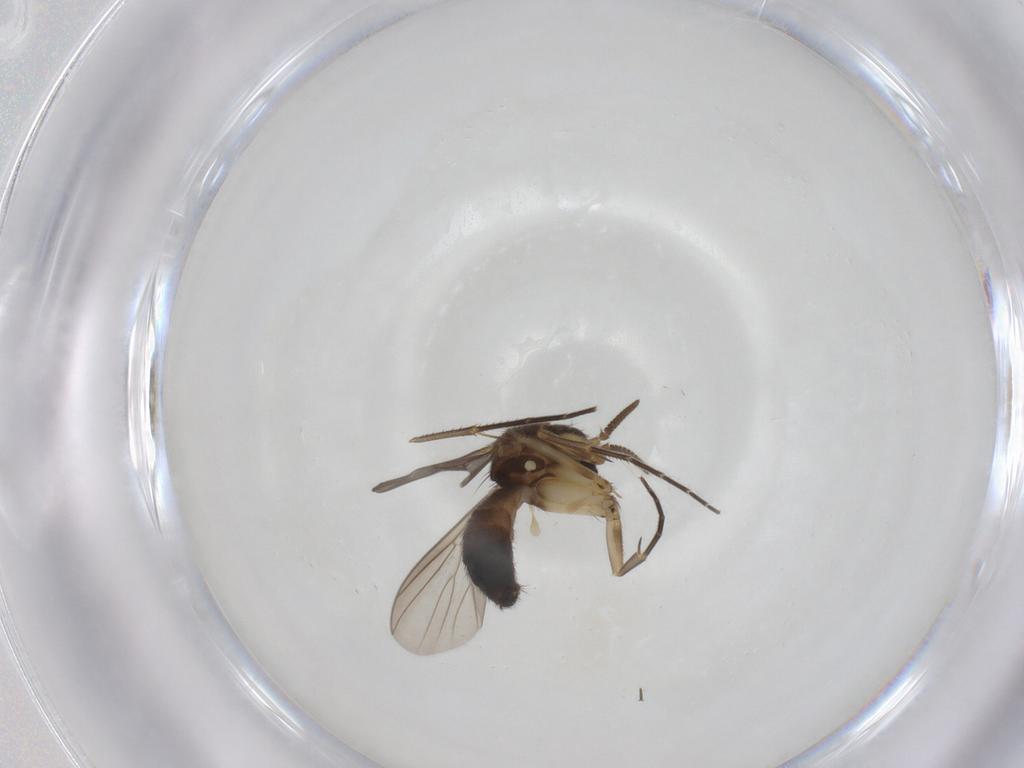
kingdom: Animalia
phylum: Arthropoda
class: Insecta
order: Diptera
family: Mycetophilidae
